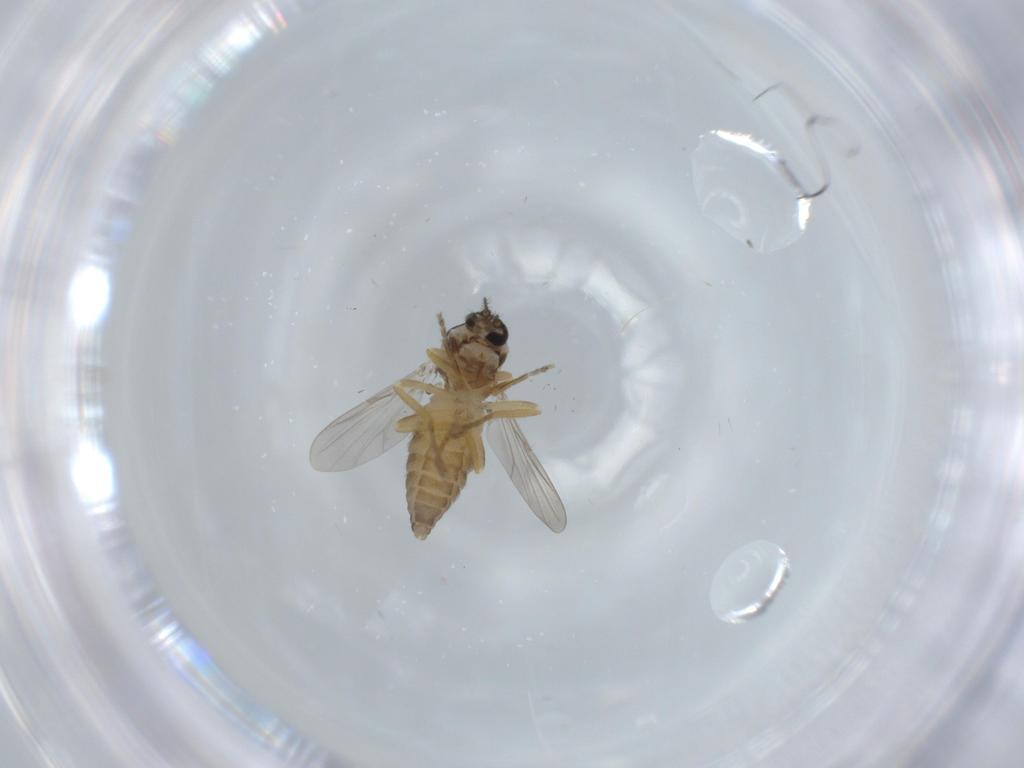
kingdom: Animalia
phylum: Arthropoda
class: Insecta
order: Diptera
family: Ceratopogonidae
